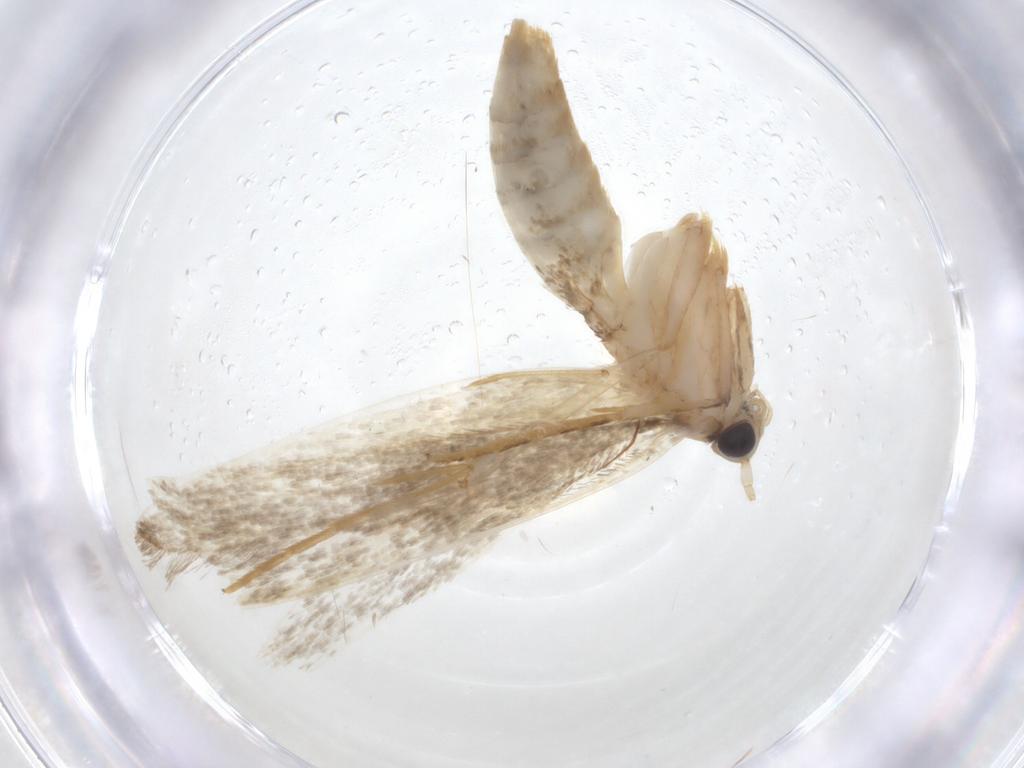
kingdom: Animalia
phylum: Arthropoda
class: Insecta
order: Lepidoptera
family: Tineidae
